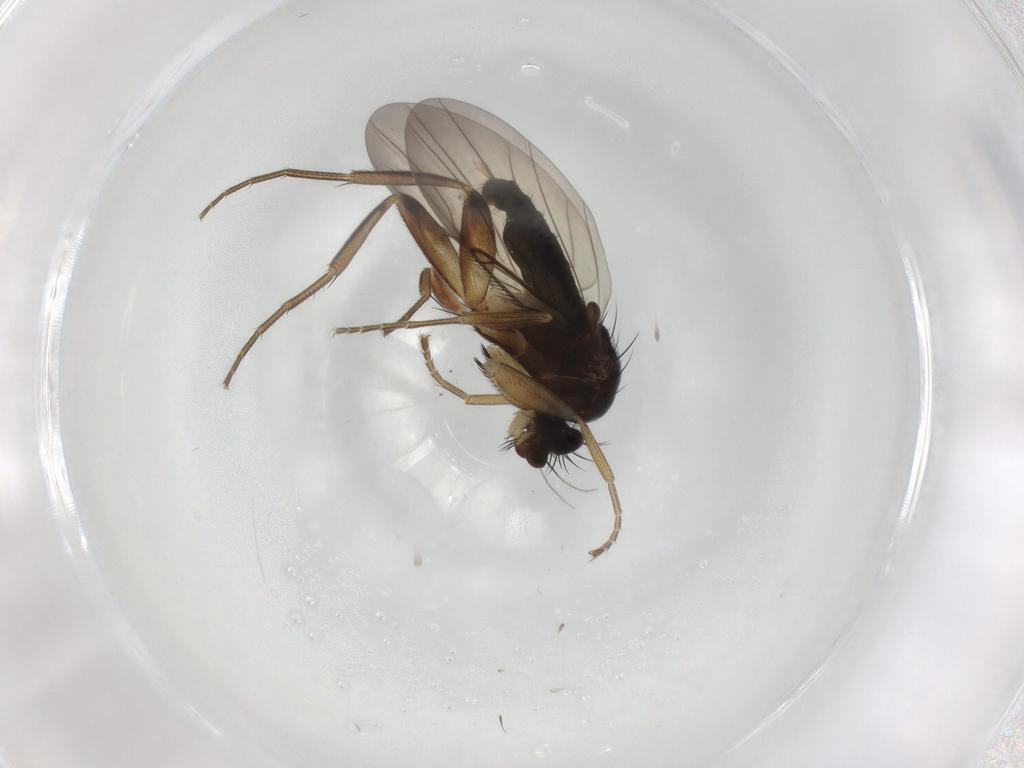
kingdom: Animalia
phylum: Arthropoda
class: Insecta
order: Diptera
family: Phoridae
